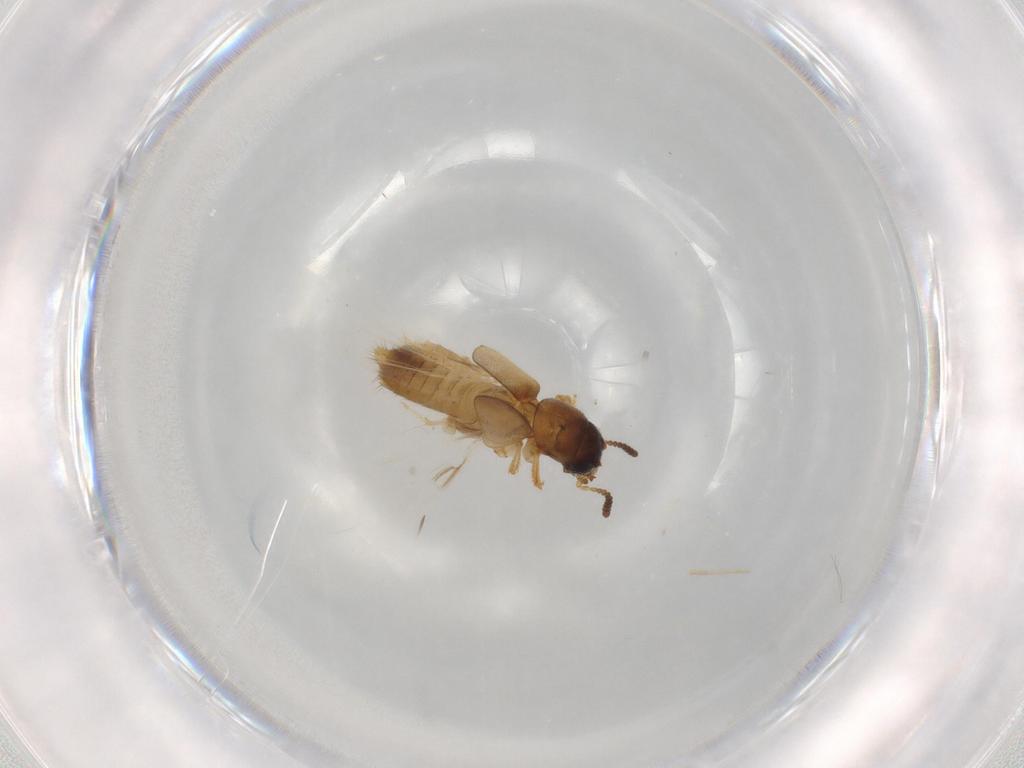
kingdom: Animalia
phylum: Arthropoda
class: Insecta
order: Coleoptera
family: Staphylinidae
